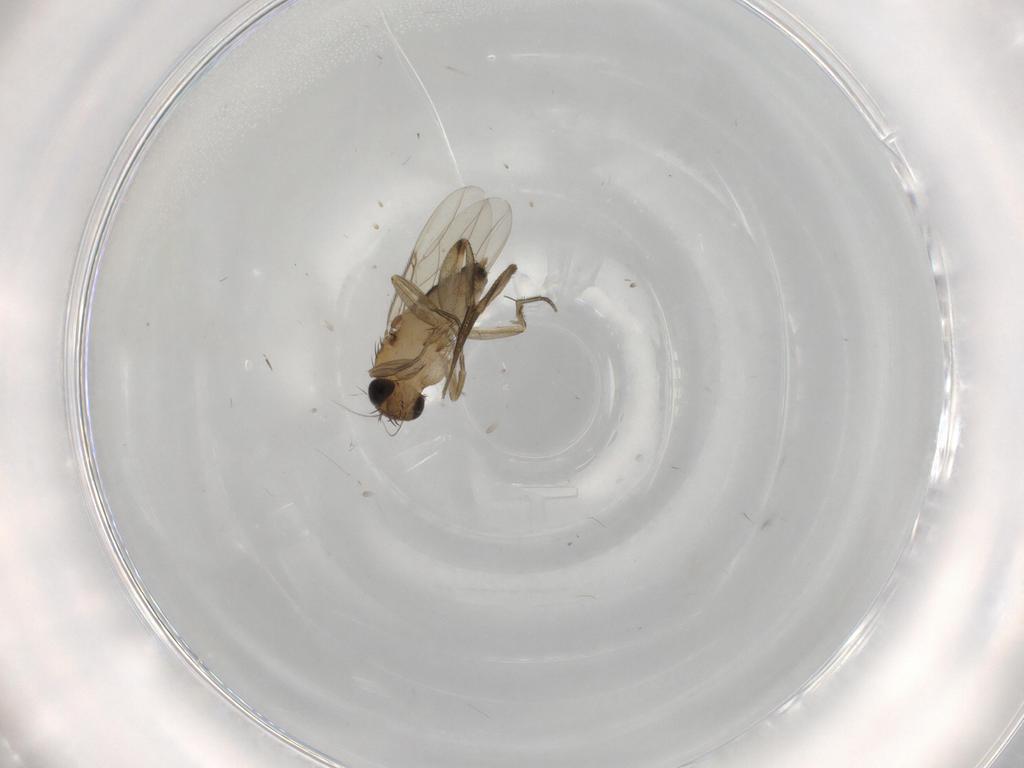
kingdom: Animalia
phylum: Arthropoda
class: Insecta
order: Diptera
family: Phoridae
